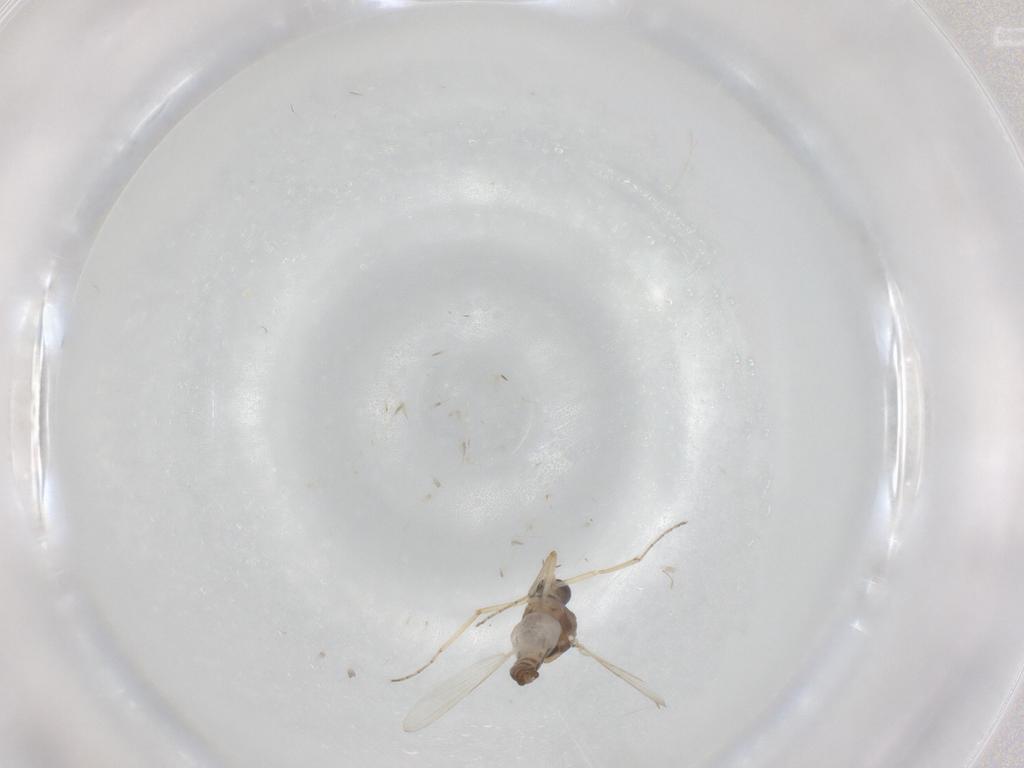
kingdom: Animalia
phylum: Arthropoda
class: Insecta
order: Diptera
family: Ceratopogonidae
